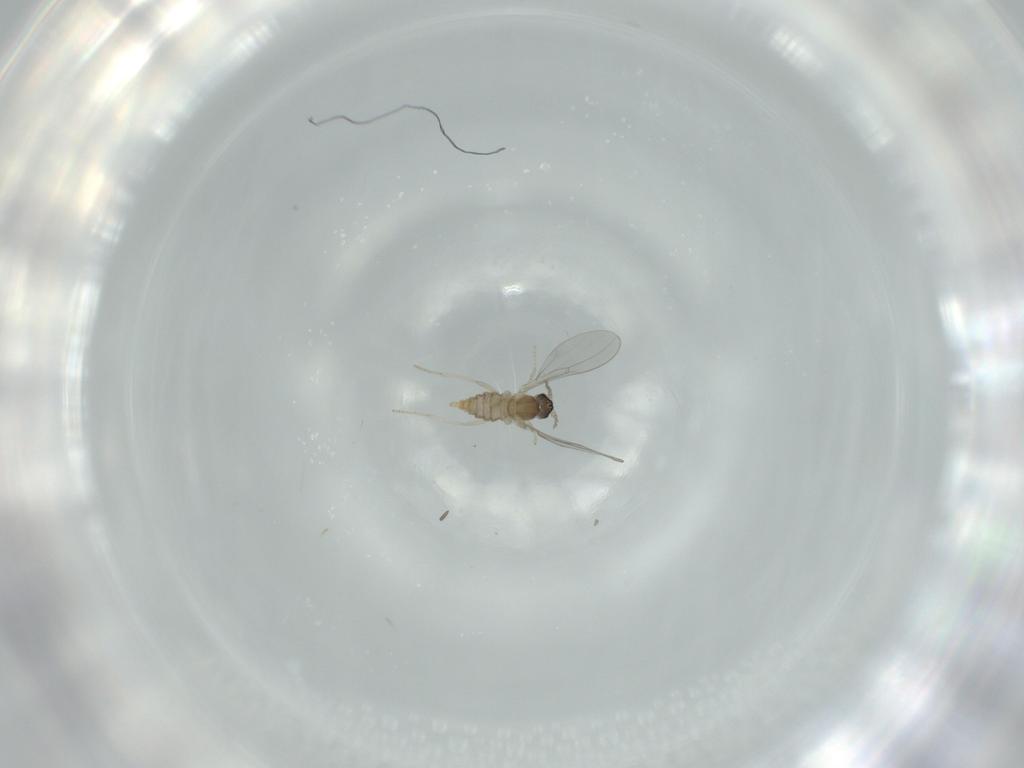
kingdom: Animalia
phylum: Arthropoda
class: Insecta
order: Diptera
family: Cecidomyiidae
